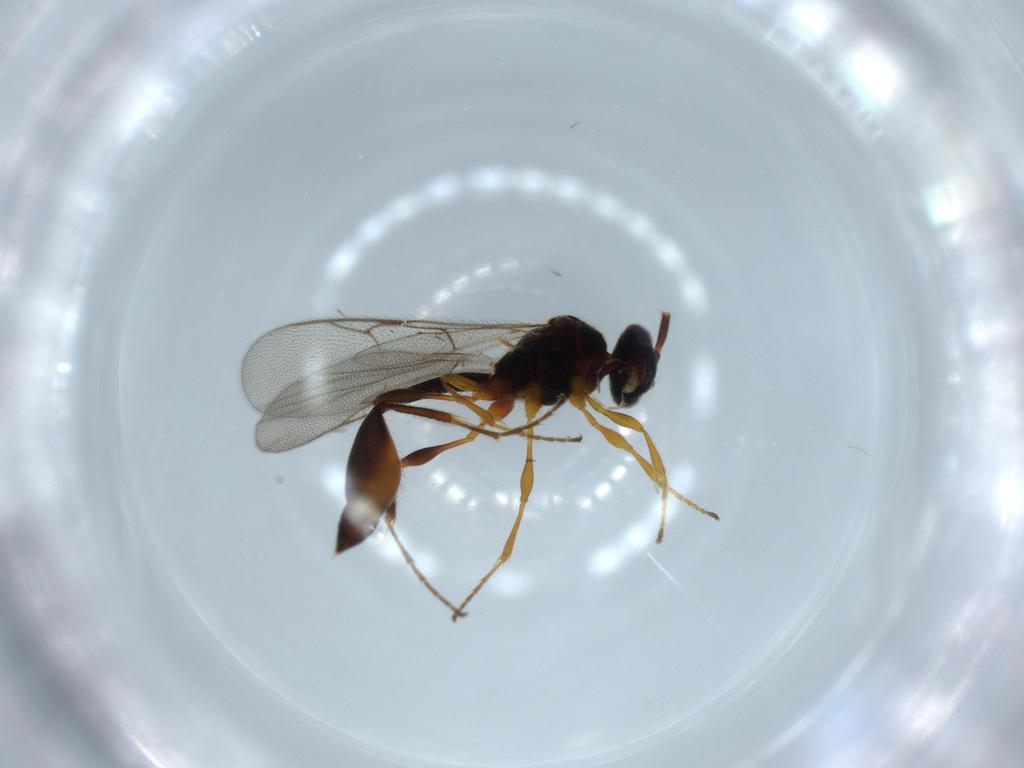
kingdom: Animalia
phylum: Arthropoda
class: Insecta
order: Hymenoptera
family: Diapriidae
